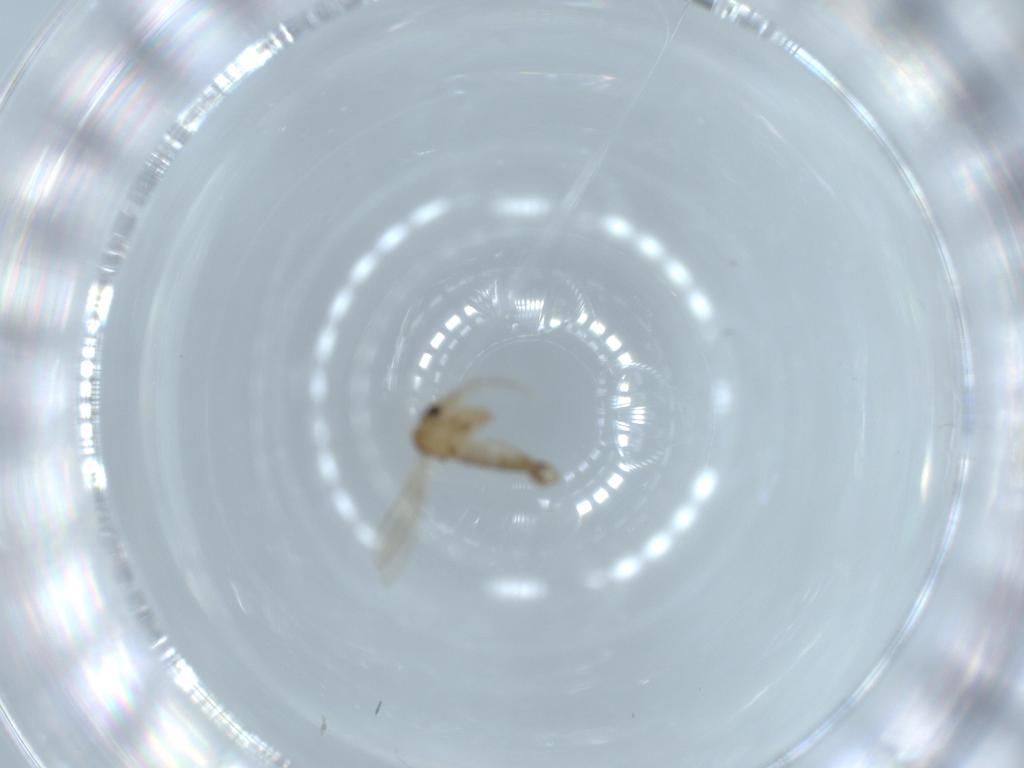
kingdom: Animalia
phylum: Arthropoda
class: Insecta
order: Diptera
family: Psychodidae
